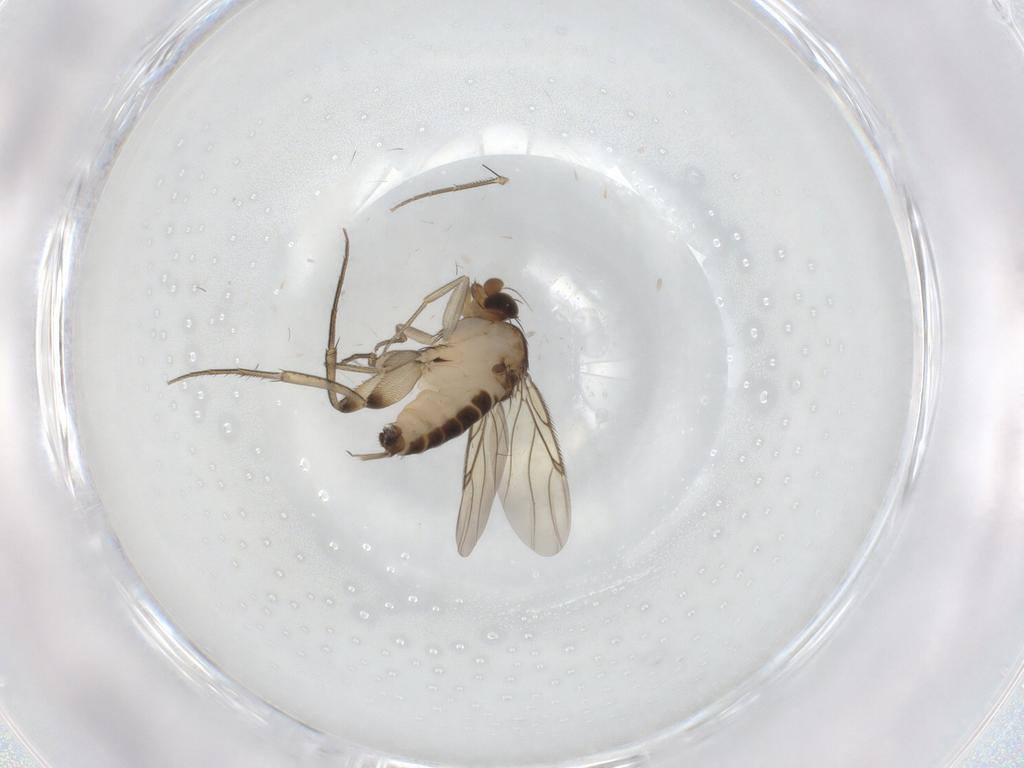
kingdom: Animalia
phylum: Arthropoda
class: Insecta
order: Diptera
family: Phoridae
